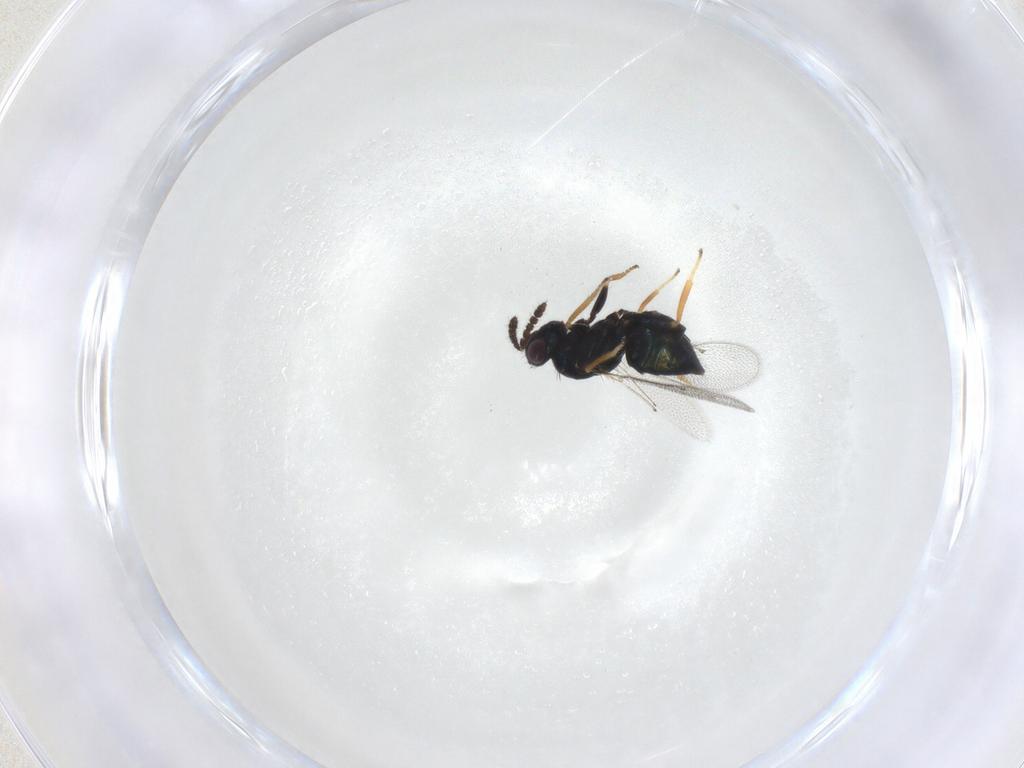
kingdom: Animalia
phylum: Arthropoda
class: Insecta
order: Hymenoptera
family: Eulophidae
